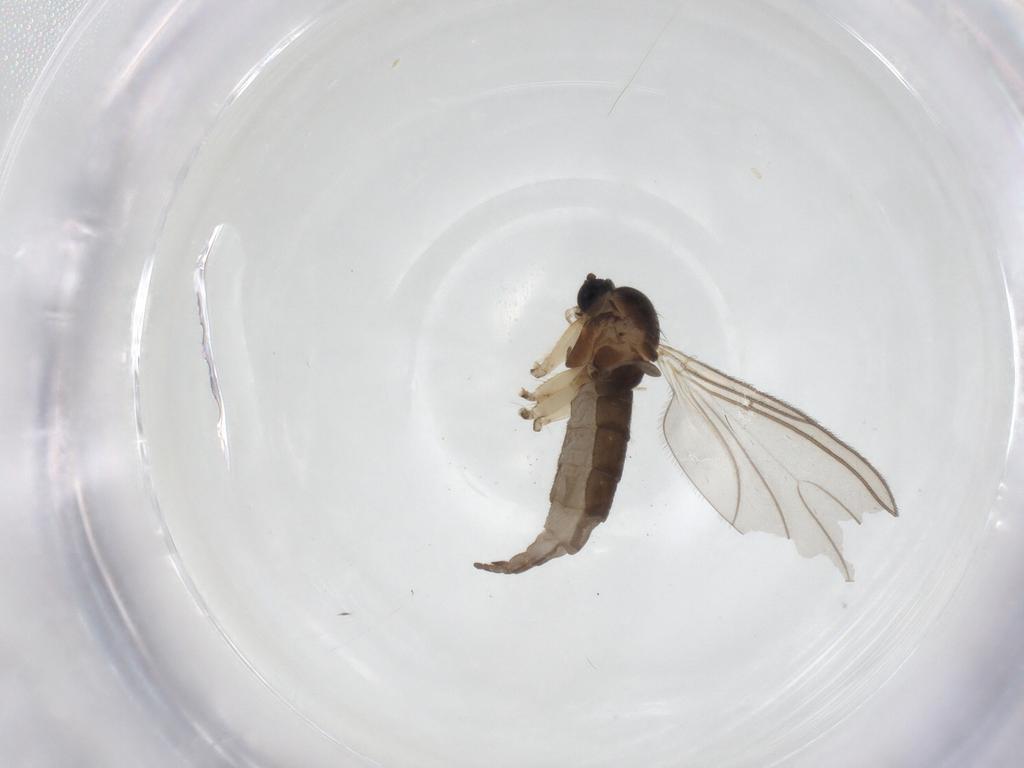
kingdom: Animalia
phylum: Arthropoda
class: Insecta
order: Diptera
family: Sciaridae
